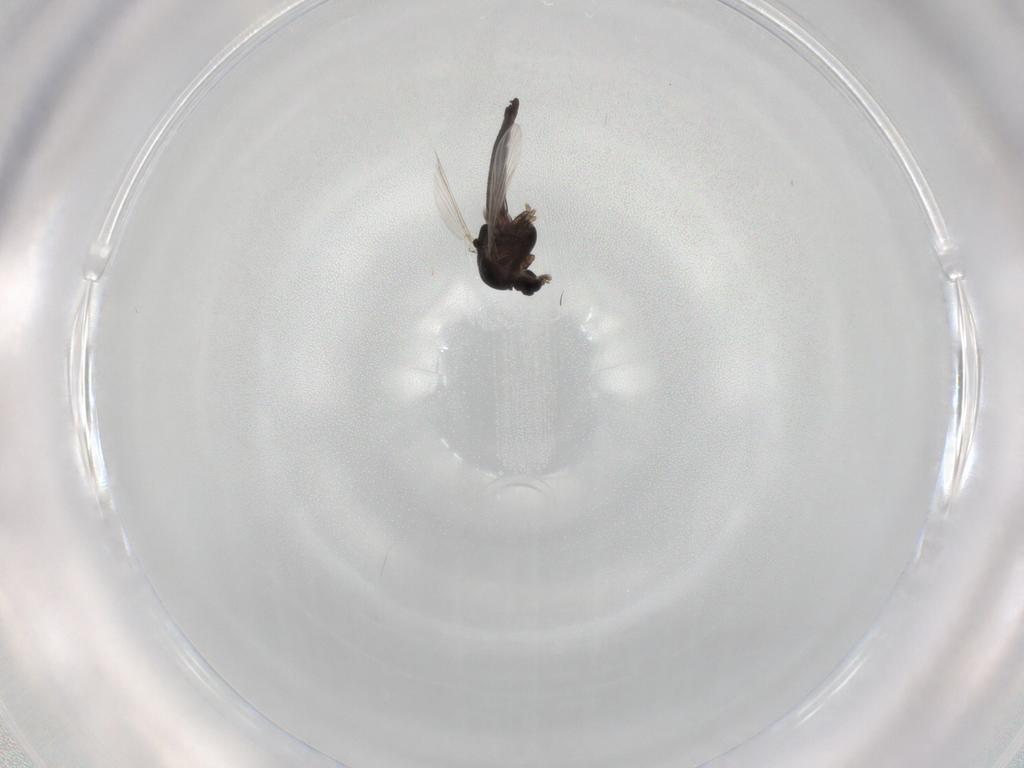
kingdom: Animalia
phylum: Arthropoda
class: Insecta
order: Diptera
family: Chironomidae
